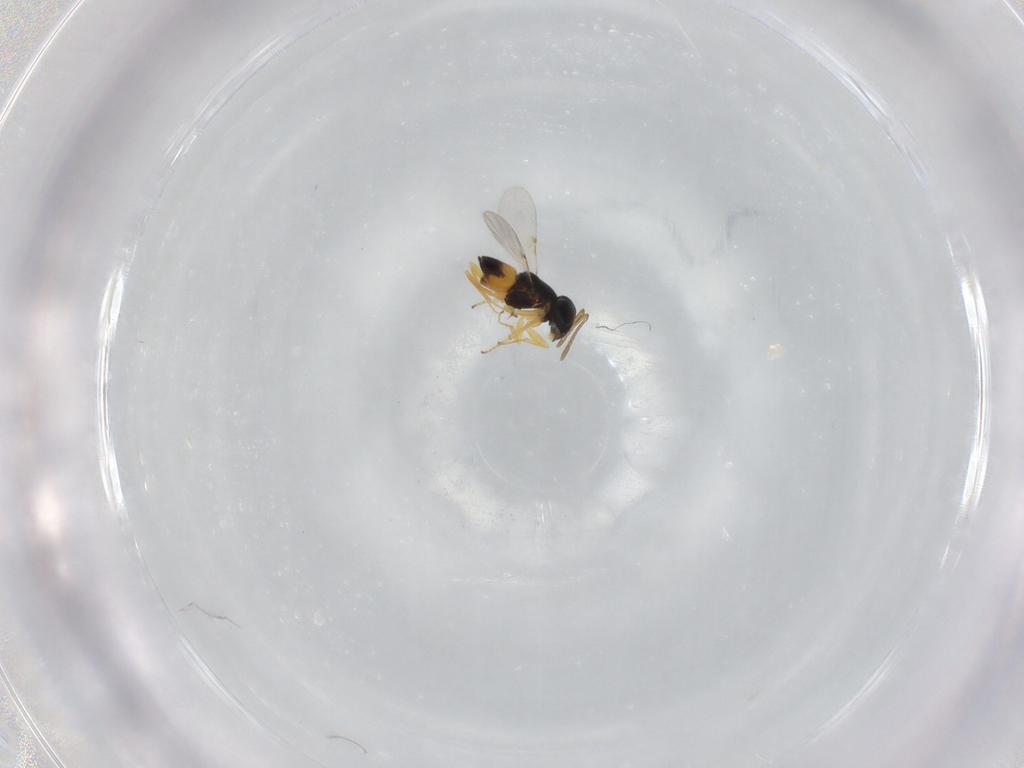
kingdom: Animalia
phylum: Arthropoda
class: Insecta
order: Hymenoptera
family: Encyrtidae
